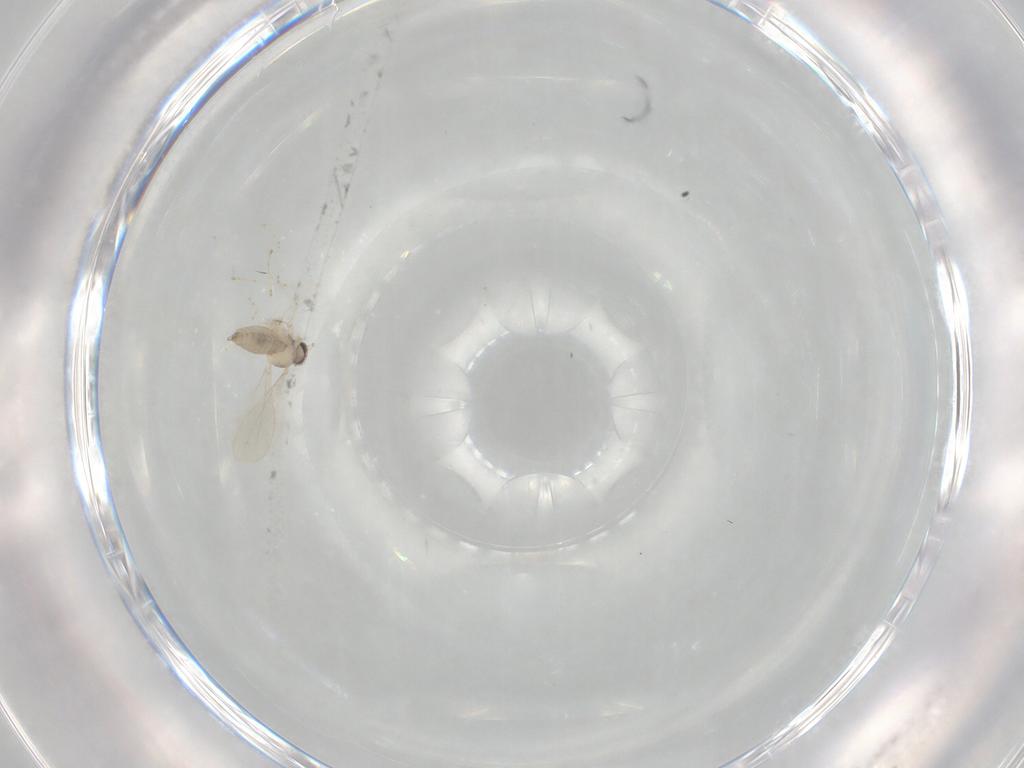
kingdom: Animalia
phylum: Arthropoda
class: Insecta
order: Diptera
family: Cecidomyiidae
